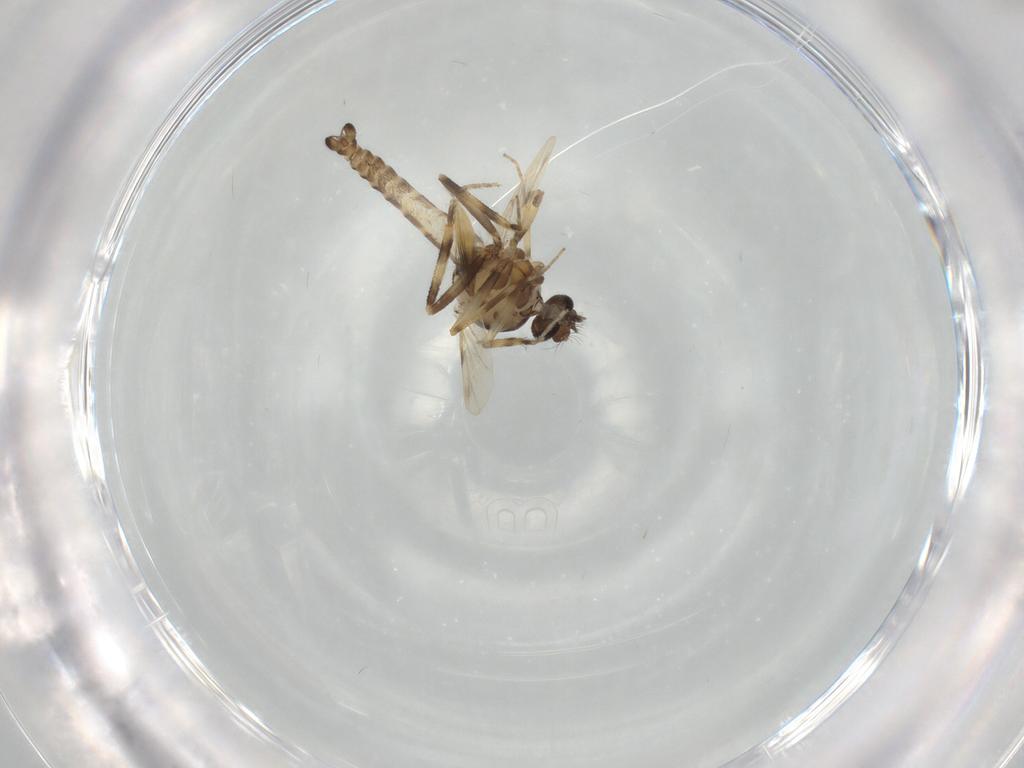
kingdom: Animalia
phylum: Arthropoda
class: Insecta
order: Diptera
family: Ceratopogonidae
